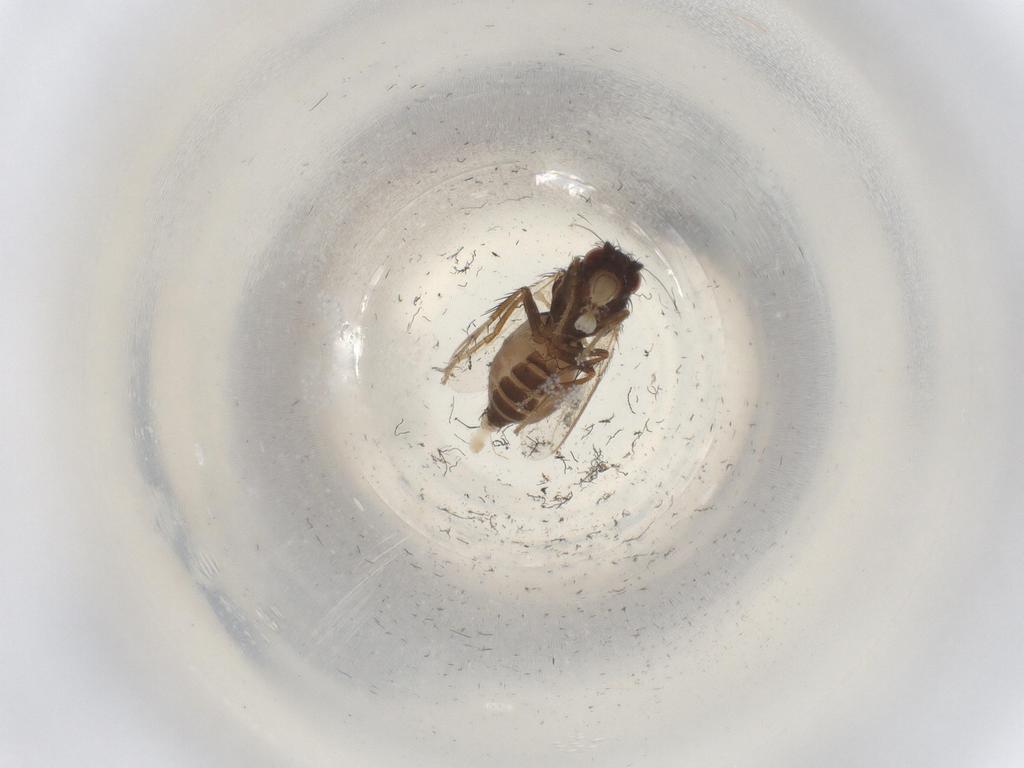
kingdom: Animalia
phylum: Arthropoda
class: Insecta
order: Diptera
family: Sphaeroceridae
